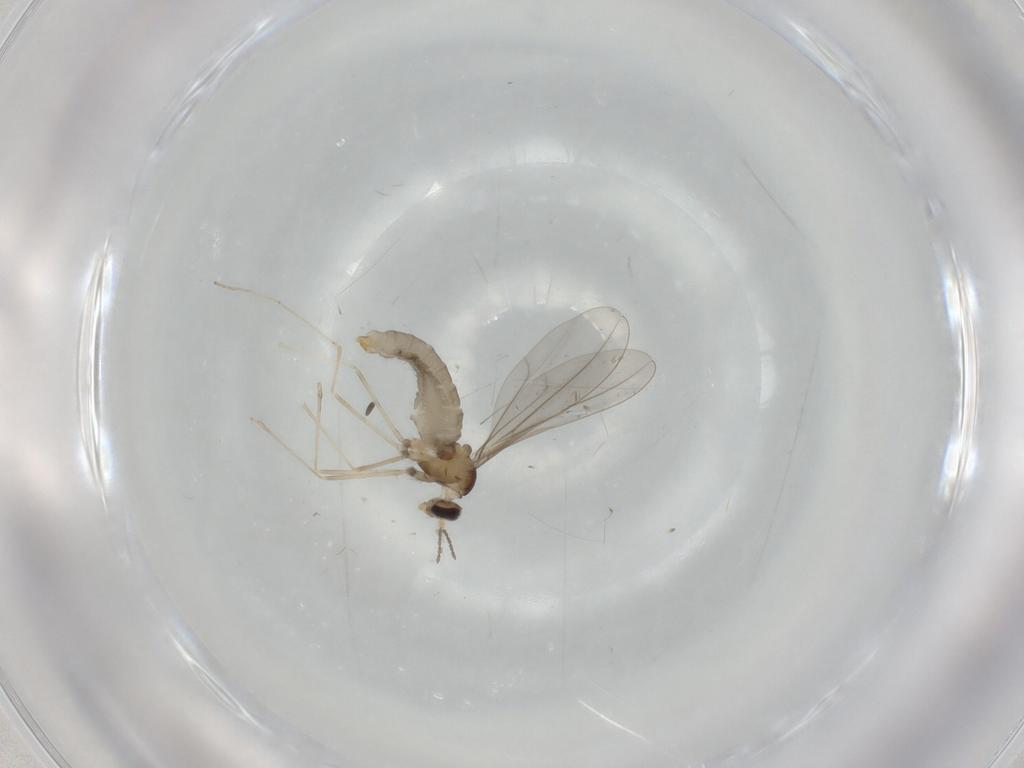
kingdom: Animalia
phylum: Arthropoda
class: Insecta
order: Diptera
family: Cecidomyiidae
